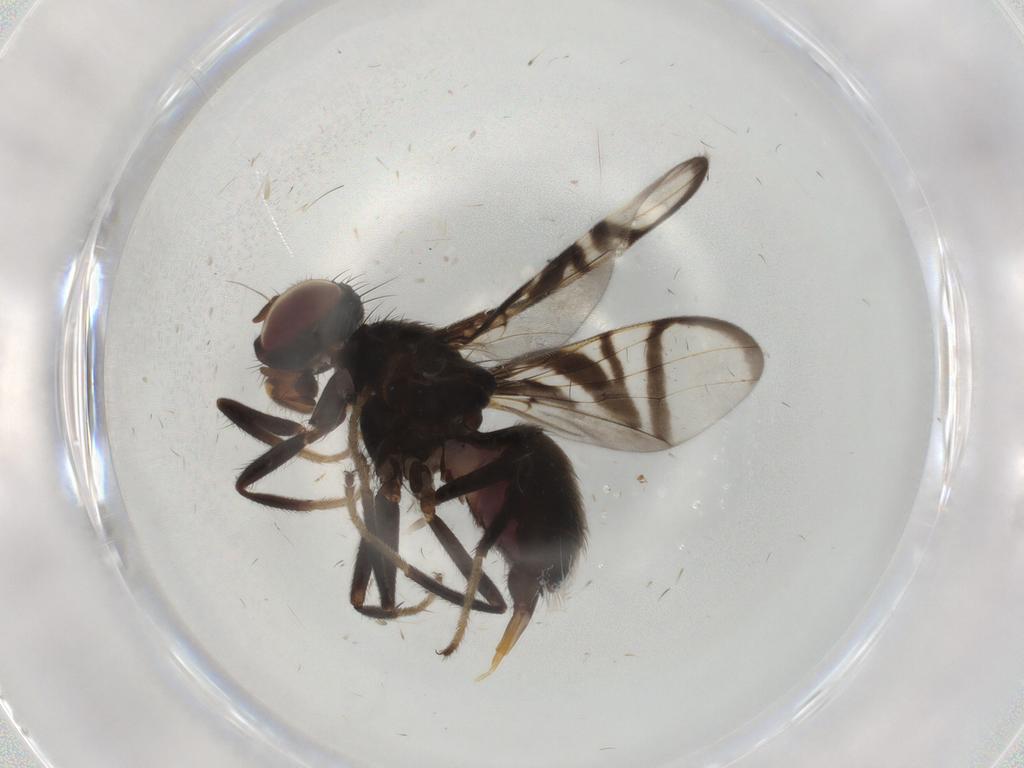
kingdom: Animalia
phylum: Arthropoda
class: Insecta
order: Diptera
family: Platystomatidae
